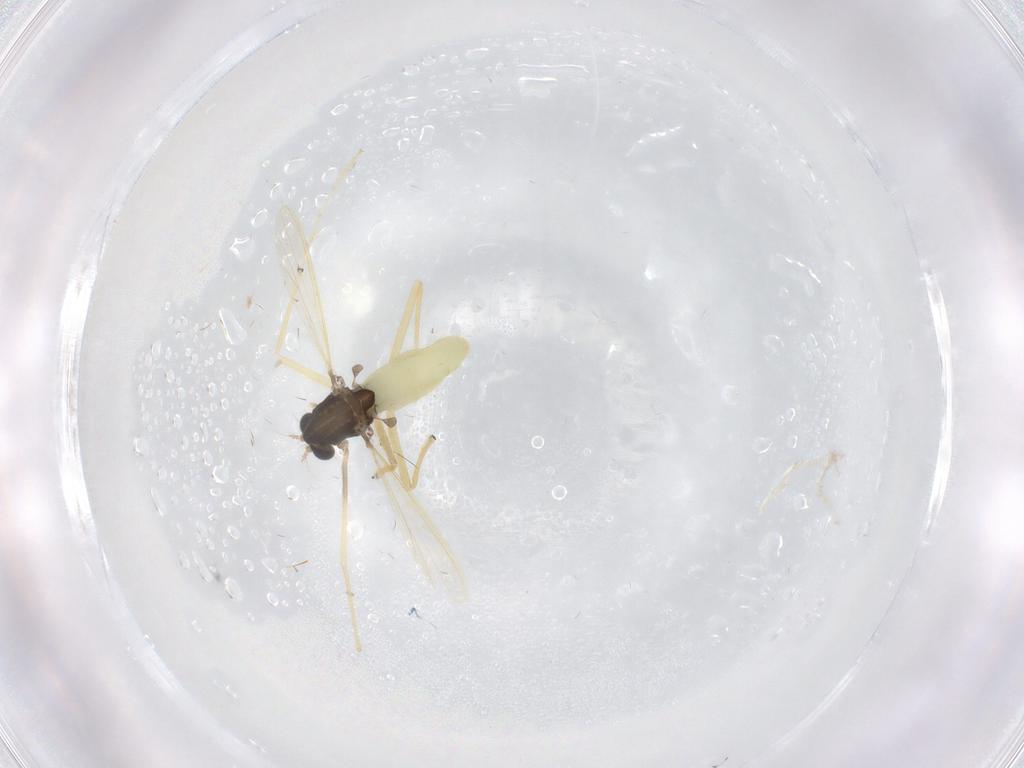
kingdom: Animalia
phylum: Arthropoda
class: Insecta
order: Diptera
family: Chironomidae
